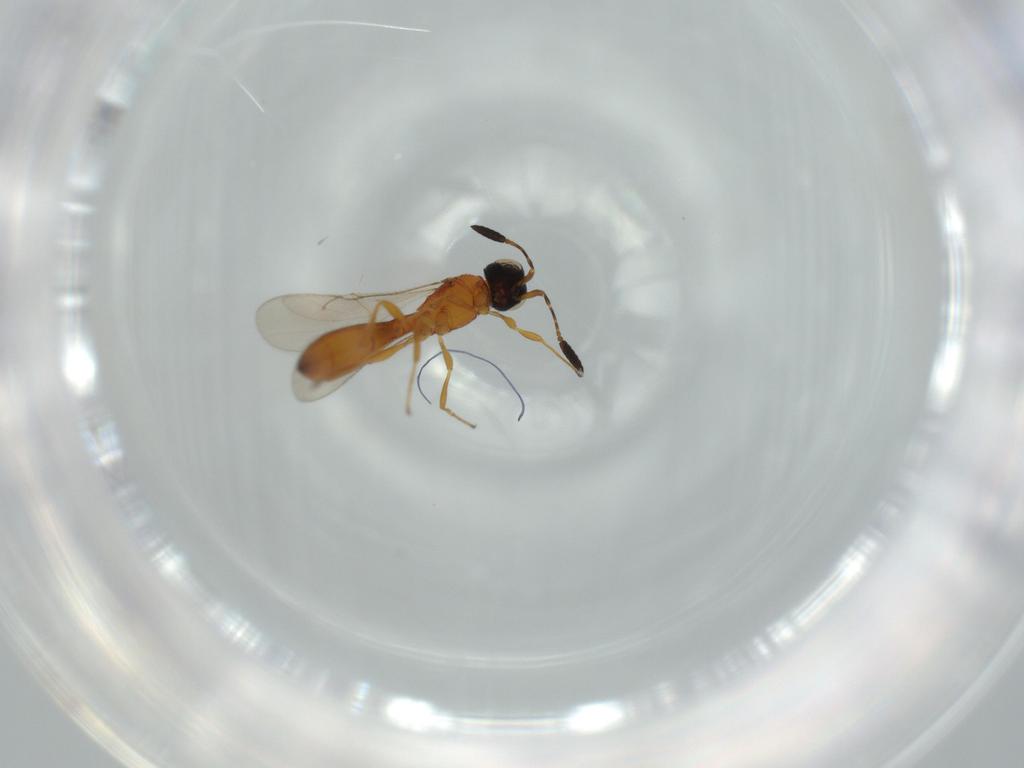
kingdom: Animalia
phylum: Arthropoda
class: Insecta
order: Hymenoptera
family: Scelionidae
